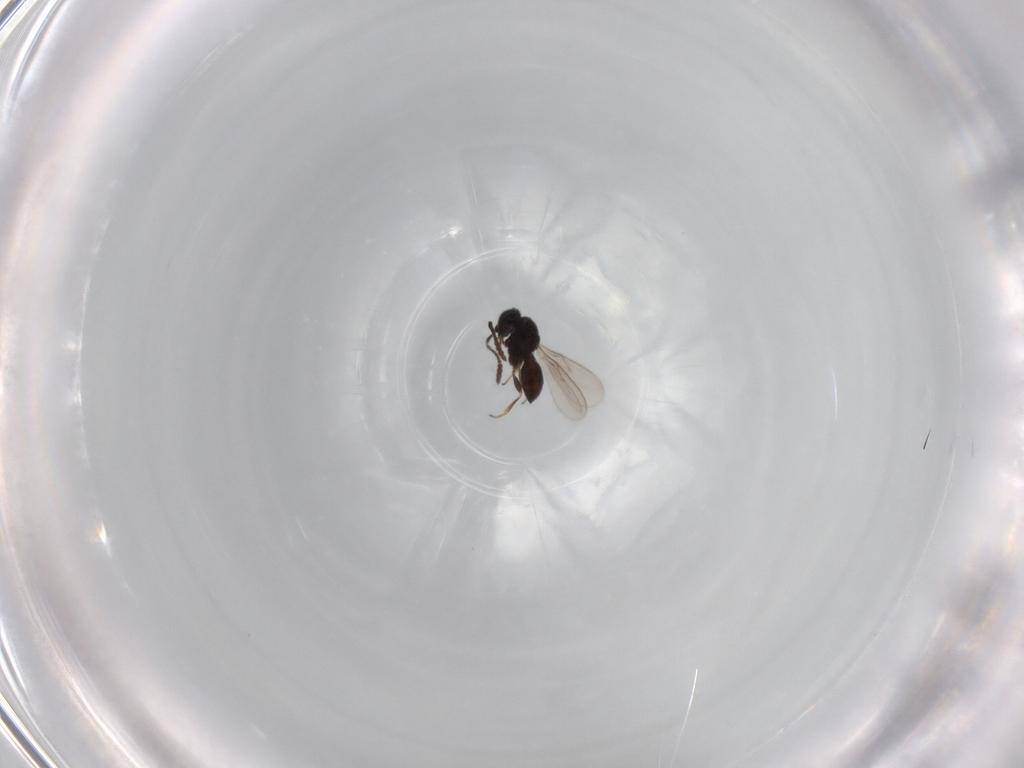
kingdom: Animalia
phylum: Arthropoda
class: Insecta
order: Hymenoptera
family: Scelionidae
